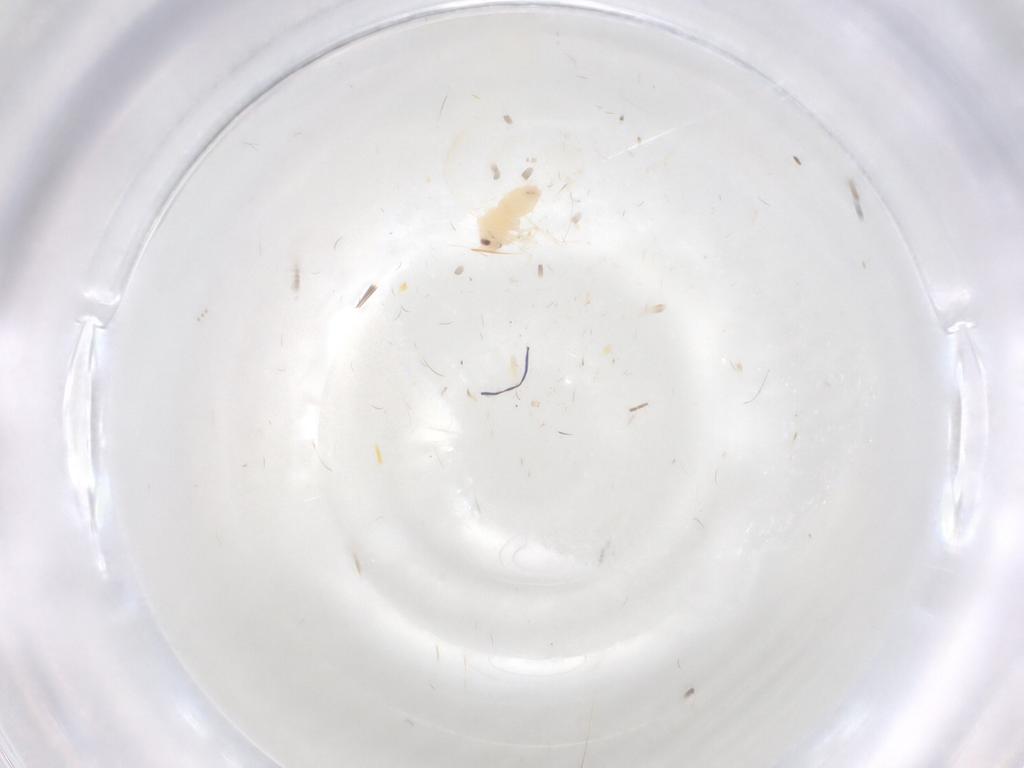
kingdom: Animalia
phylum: Arthropoda
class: Insecta
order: Hemiptera
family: Aleyrodidae
